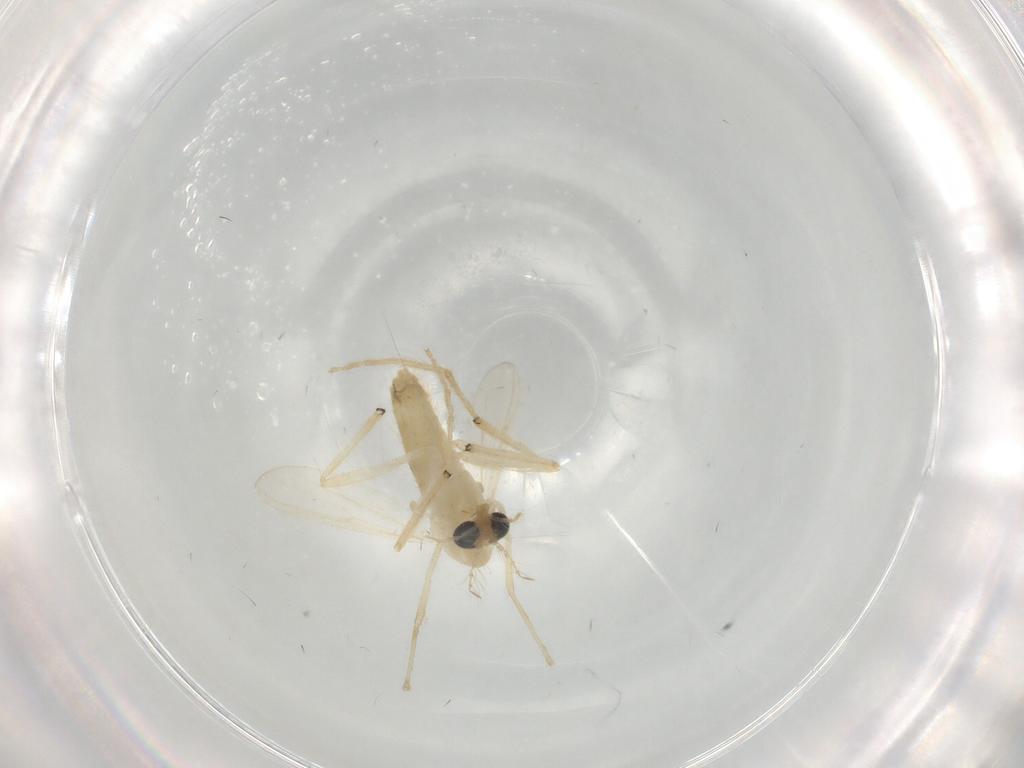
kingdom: Animalia
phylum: Arthropoda
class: Insecta
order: Diptera
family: Chironomidae
